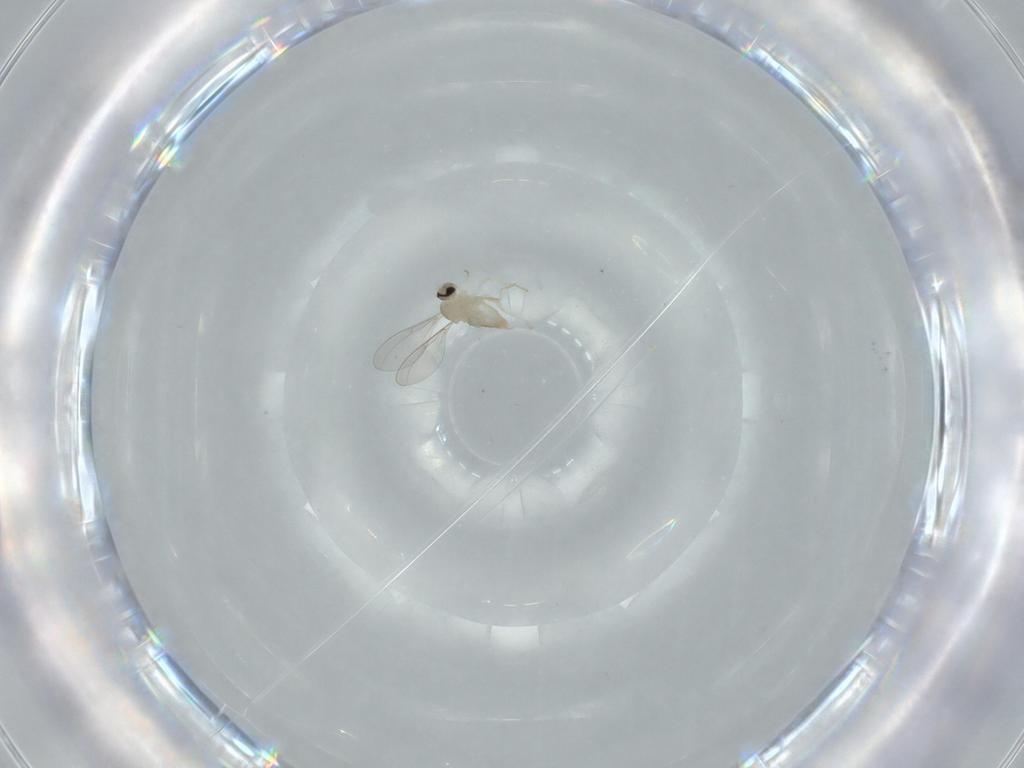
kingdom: Animalia
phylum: Arthropoda
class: Insecta
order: Diptera
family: Cecidomyiidae
